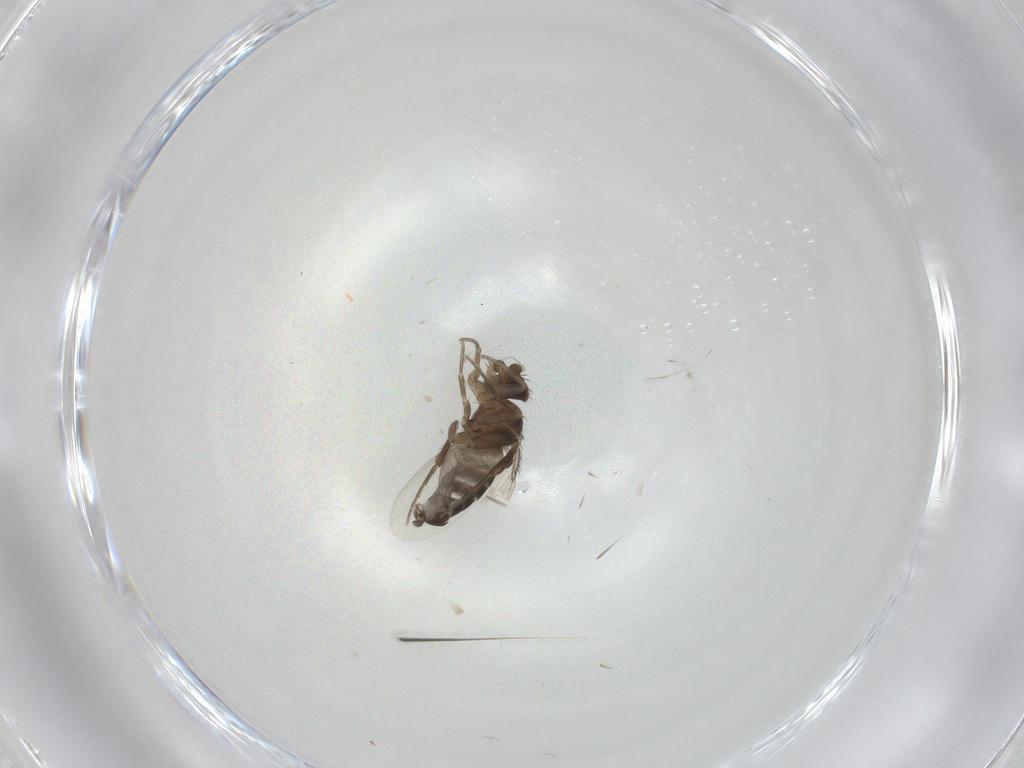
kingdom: Animalia
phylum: Arthropoda
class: Insecta
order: Diptera
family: Phoridae
